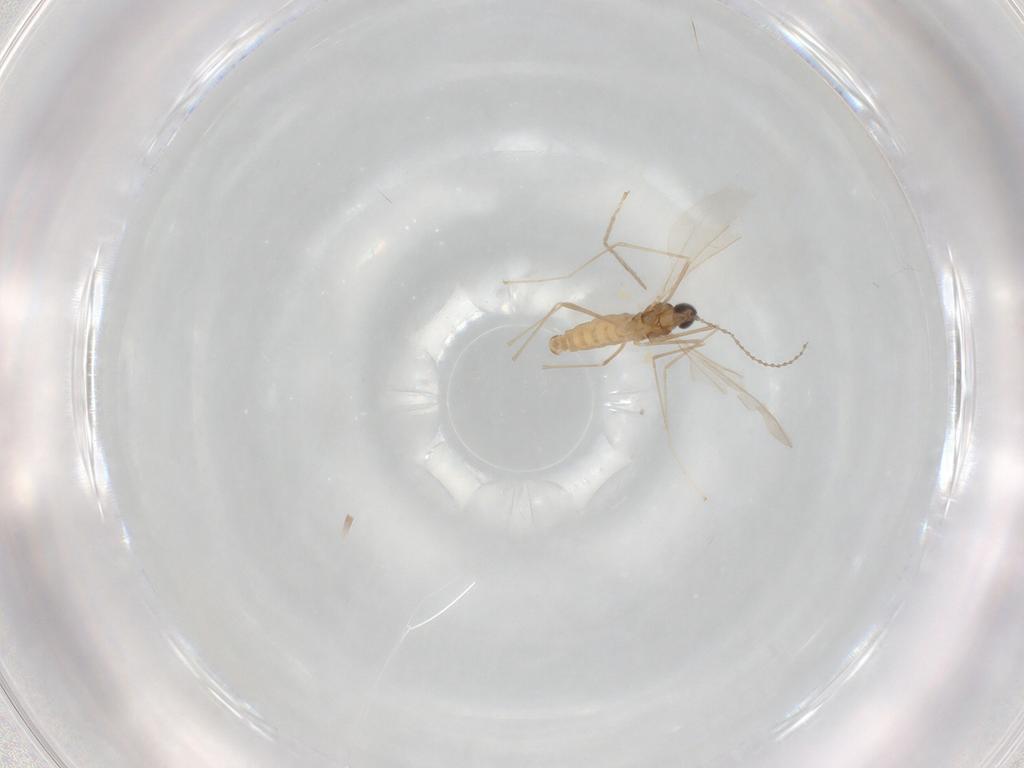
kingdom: Animalia
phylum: Arthropoda
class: Insecta
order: Diptera
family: Cecidomyiidae
